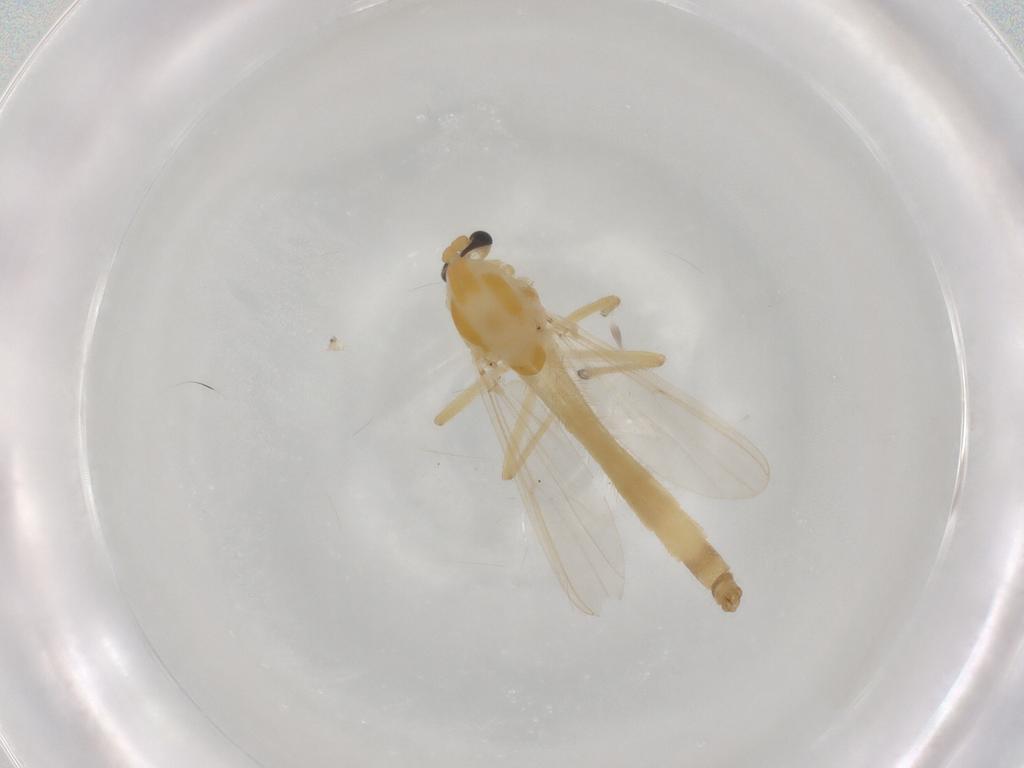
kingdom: Animalia
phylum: Arthropoda
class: Insecta
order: Diptera
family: Chironomidae
